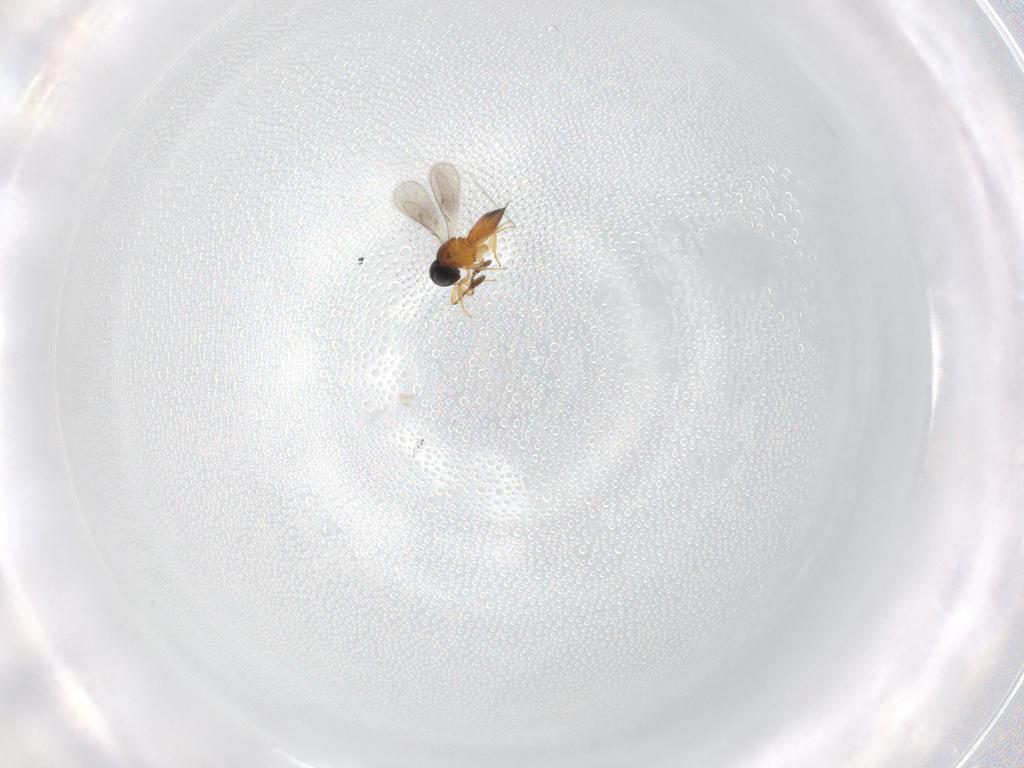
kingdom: Animalia
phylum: Arthropoda
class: Insecta
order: Hymenoptera
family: Scelionidae
